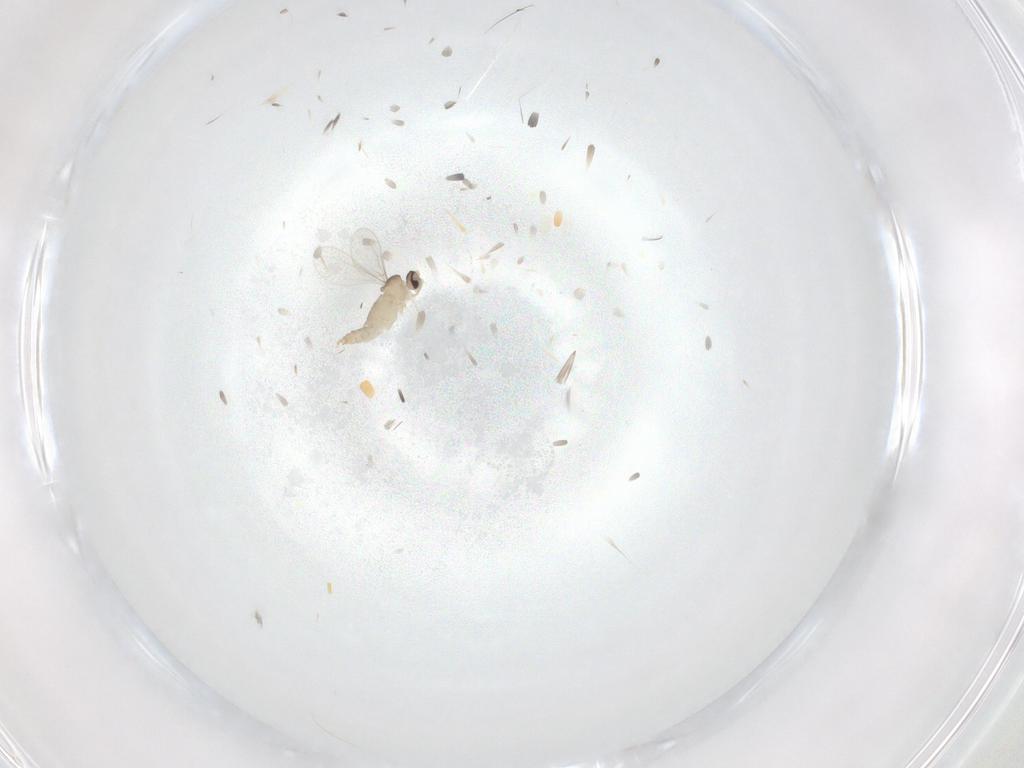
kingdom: Animalia
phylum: Arthropoda
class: Insecta
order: Diptera
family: Cecidomyiidae
